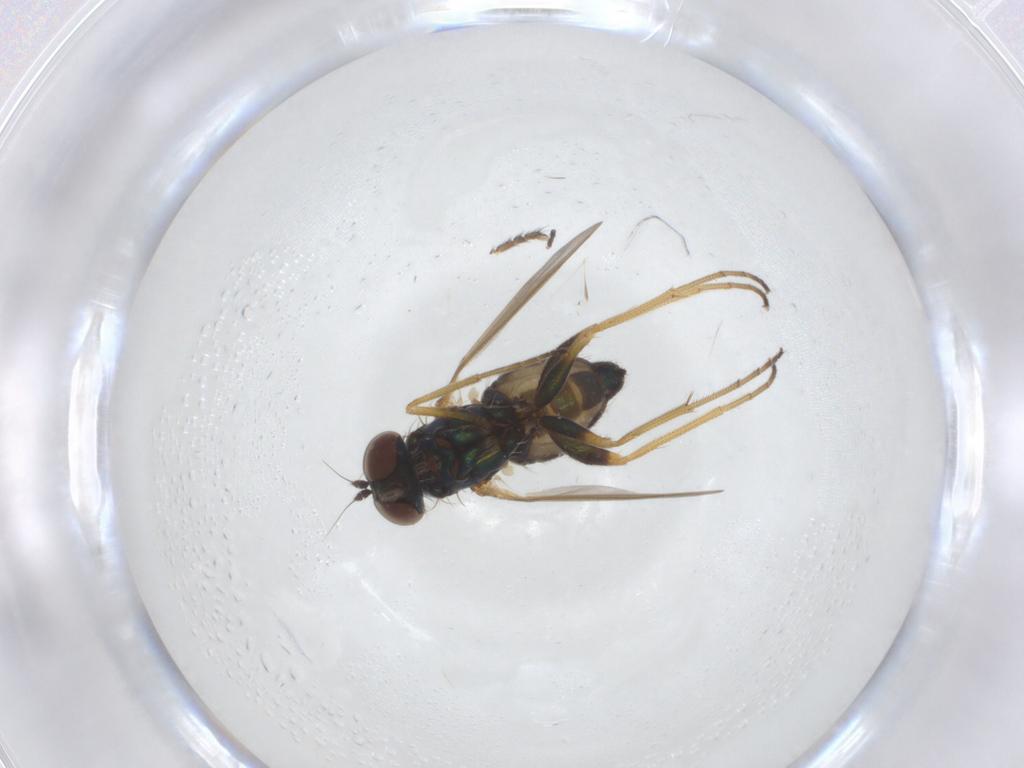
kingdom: Animalia
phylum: Arthropoda
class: Insecta
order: Diptera
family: Dolichopodidae
